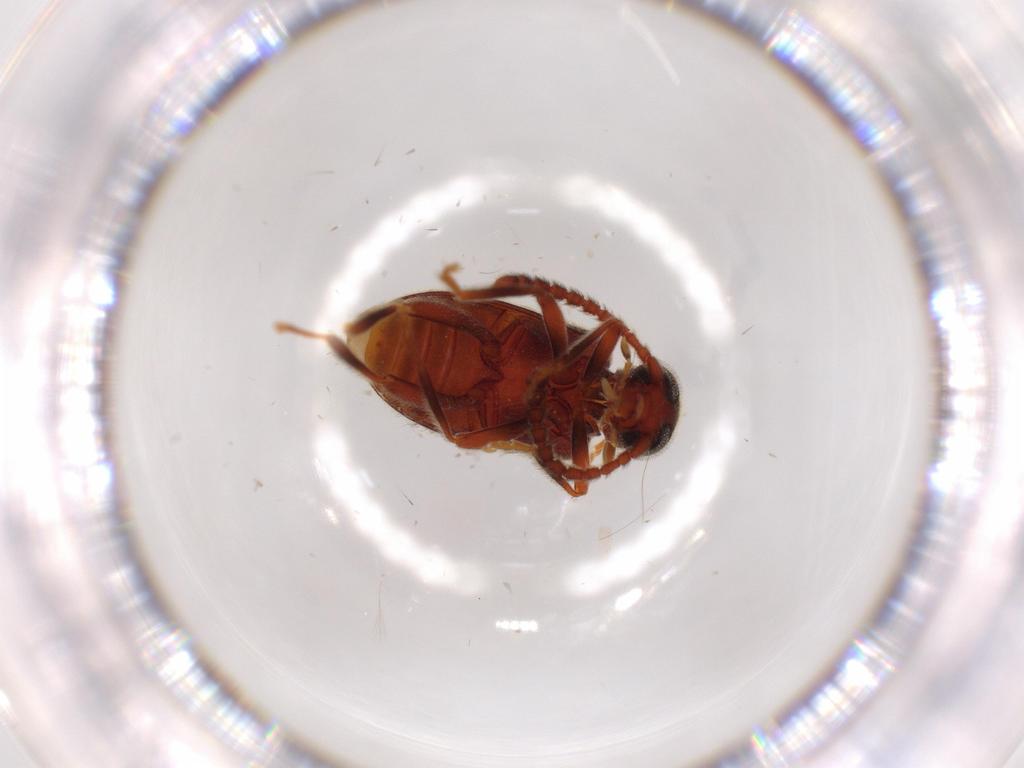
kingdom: Animalia
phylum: Arthropoda
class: Insecta
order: Coleoptera
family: Aderidae
